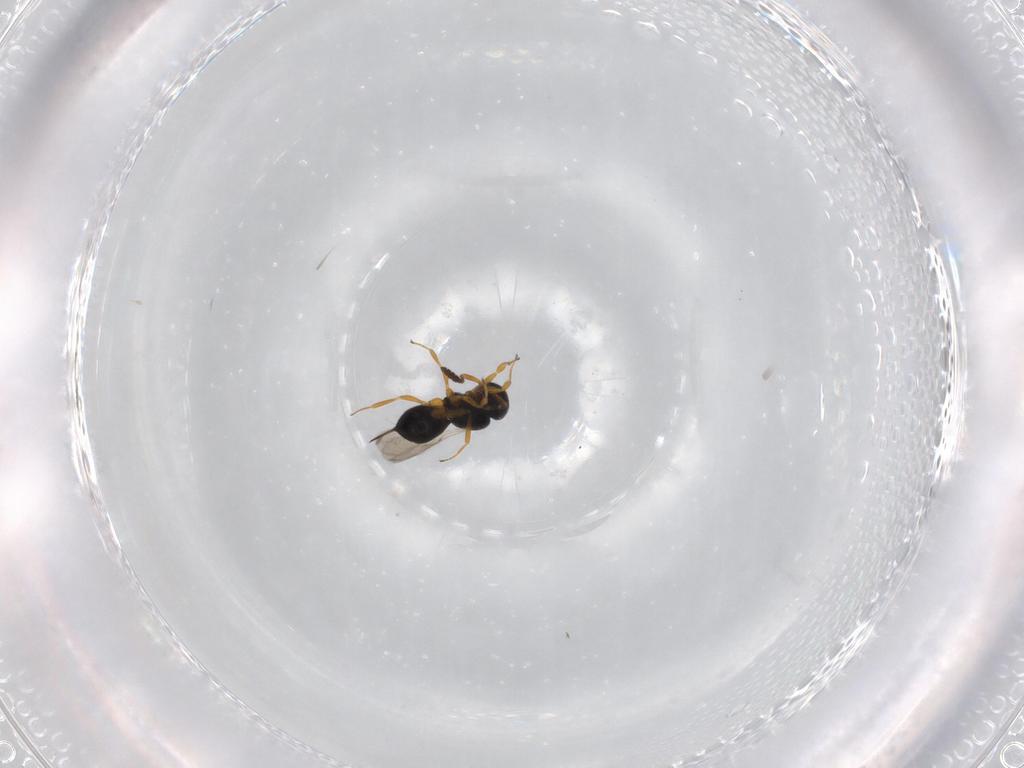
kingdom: Animalia
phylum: Arthropoda
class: Insecta
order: Hymenoptera
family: Scelionidae
